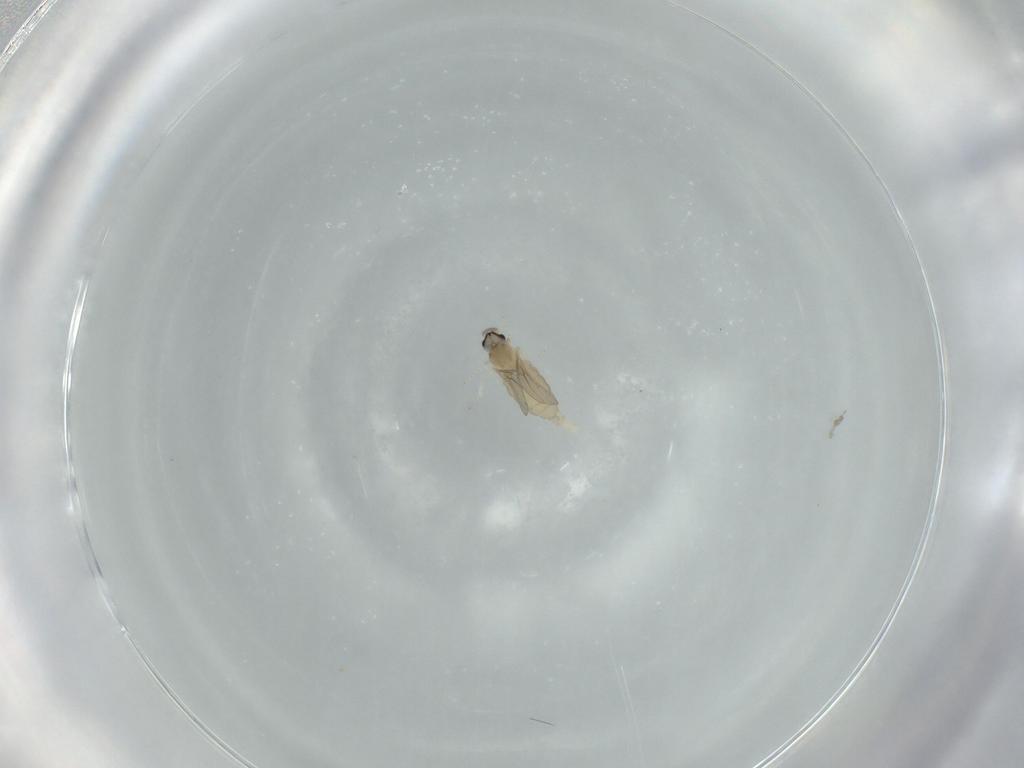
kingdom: Animalia
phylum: Arthropoda
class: Insecta
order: Diptera
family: Cecidomyiidae
